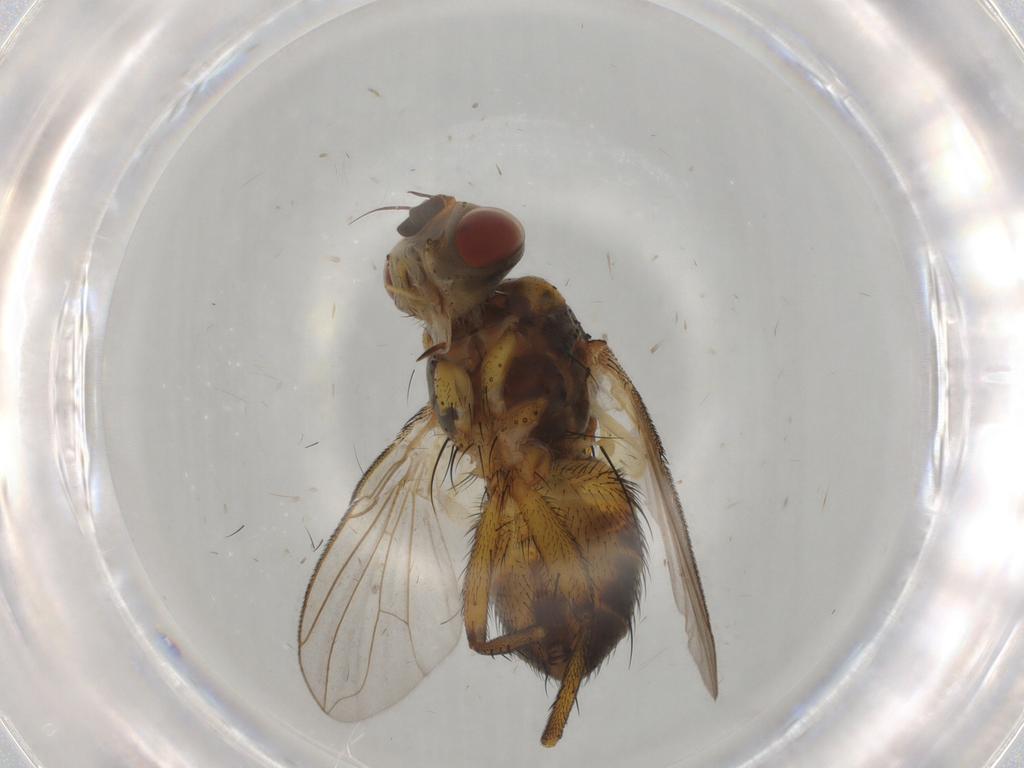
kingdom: Animalia
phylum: Arthropoda
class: Insecta
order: Diptera
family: Chironomidae
